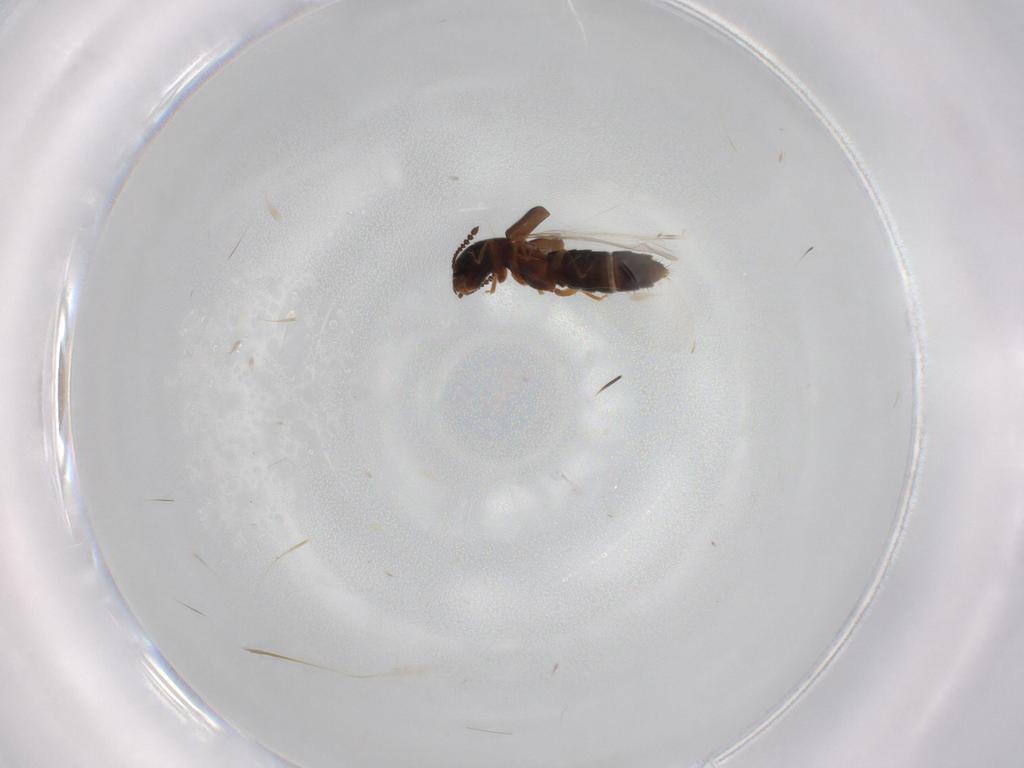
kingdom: Animalia
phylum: Arthropoda
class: Insecta
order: Coleoptera
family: Staphylinidae
